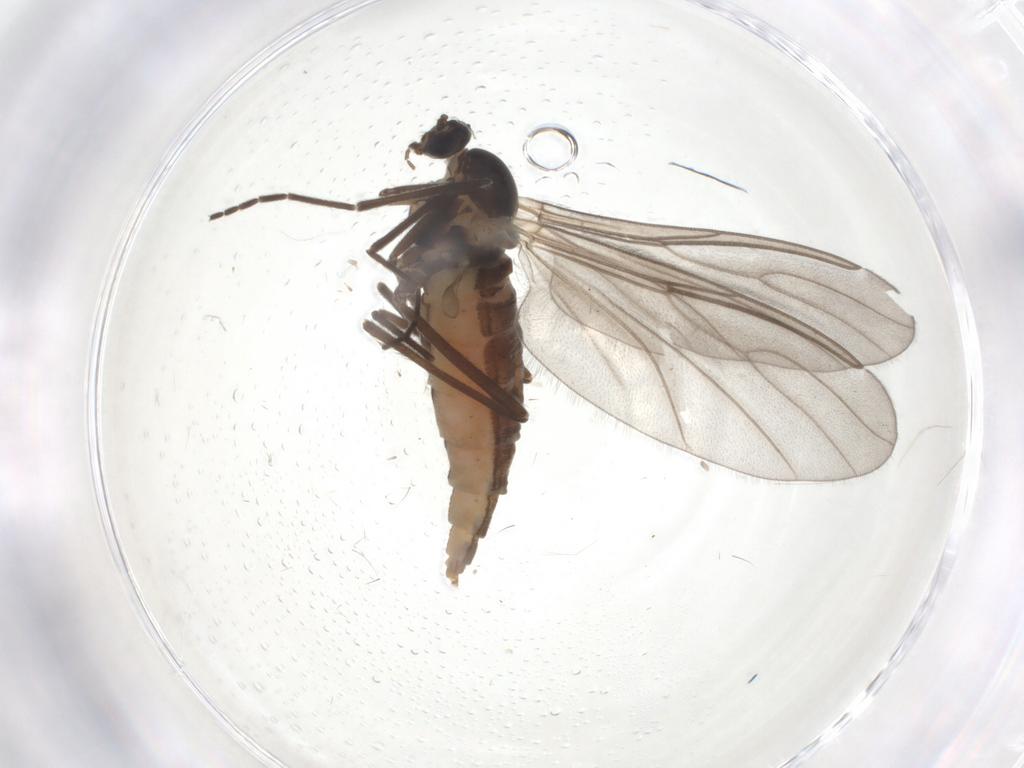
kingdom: Animalia
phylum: Arthropoda
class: Insecta
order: Diptera
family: Cecidomyiidae
